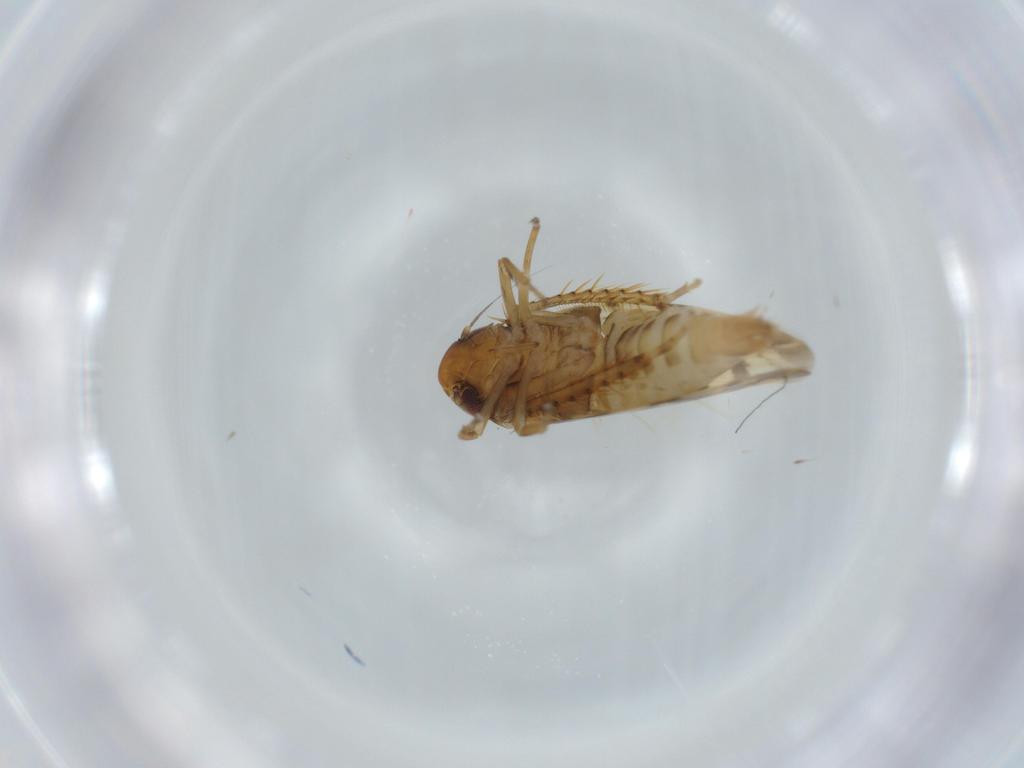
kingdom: Animalia
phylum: Arthropoda
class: Insecta
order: Hemiptera
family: Cicadellidae
